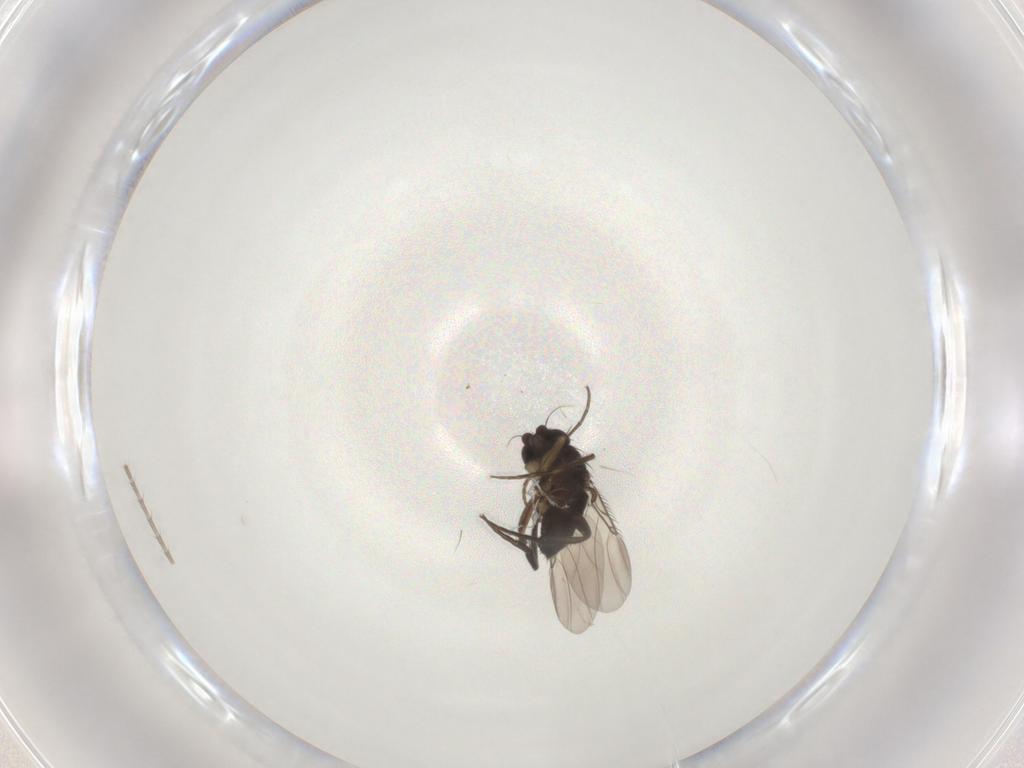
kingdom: Animalia
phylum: Arthropoda
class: Insecta
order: Diptera
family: Phoridae
